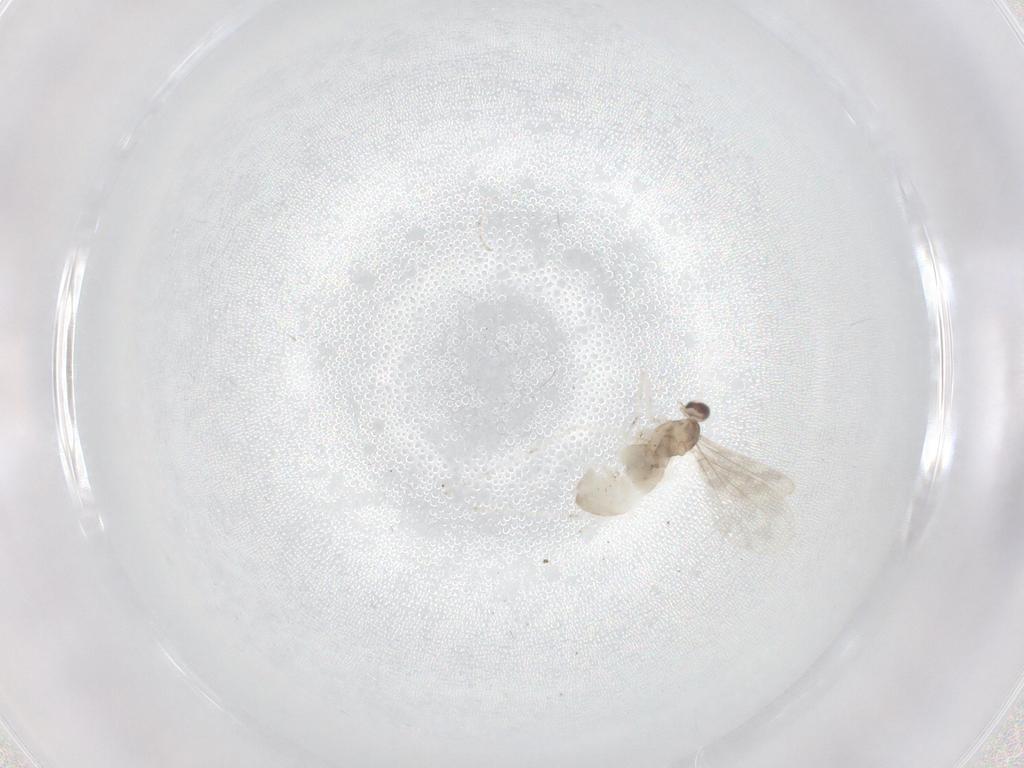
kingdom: Animalia
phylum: Arthropoda
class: Insecta
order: Diptera
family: Cecidomyiidae
